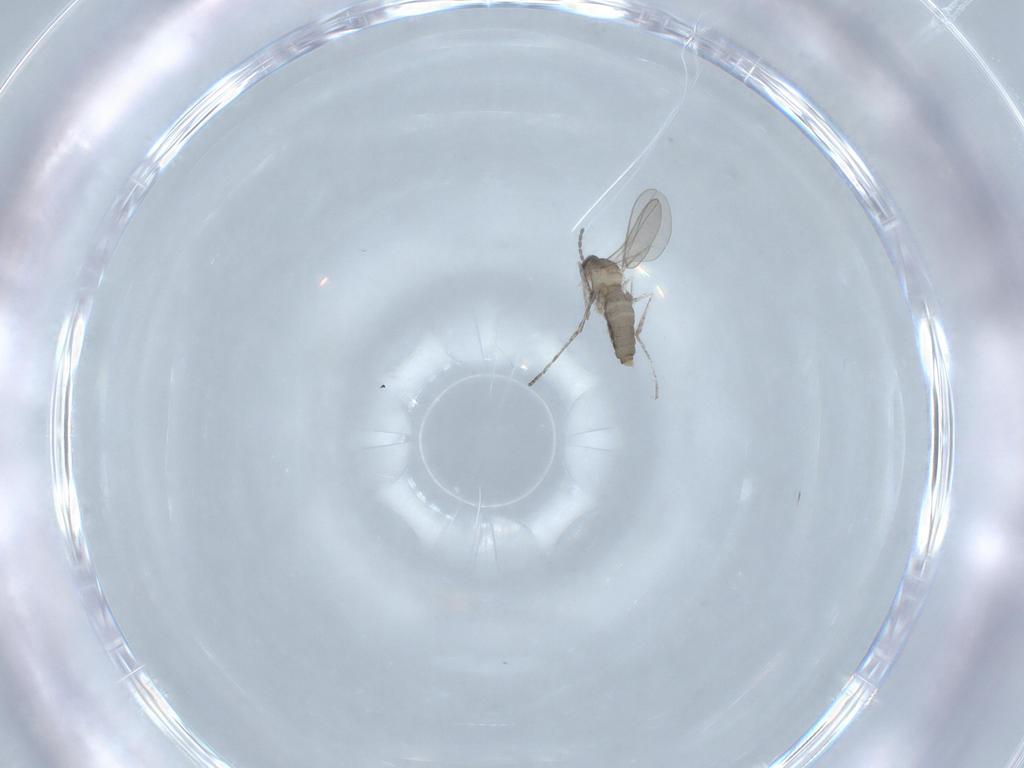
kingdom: Animalia
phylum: Arthropoda
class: Insecta
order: Diptera
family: Cecidomyiidae
